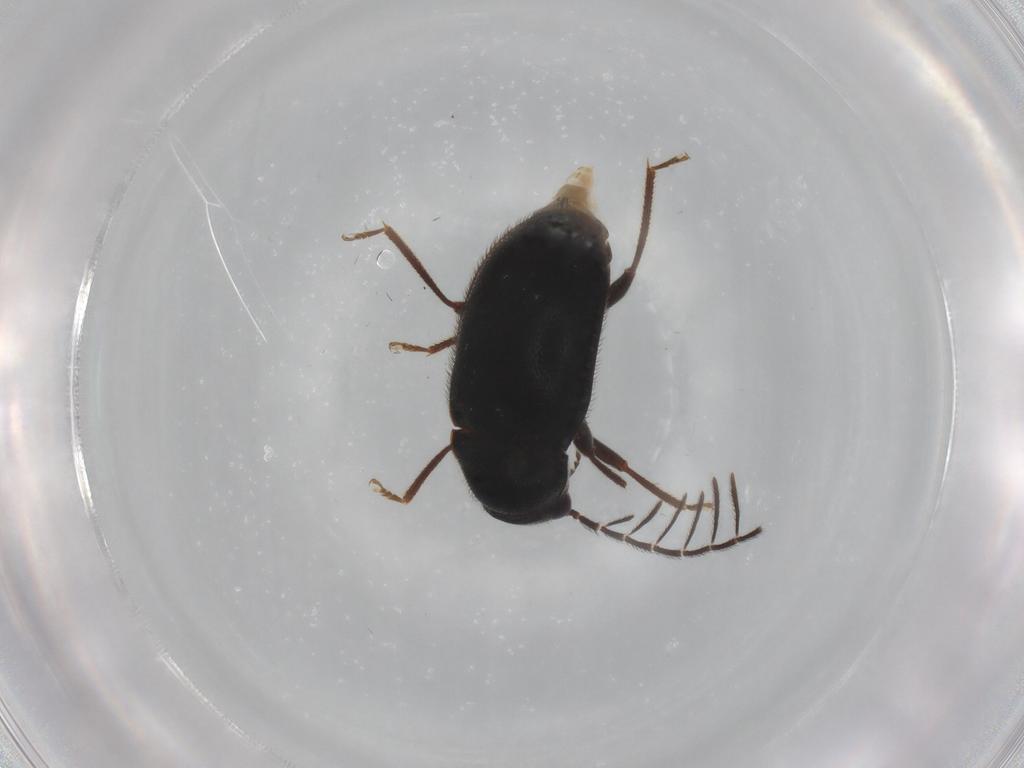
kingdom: Animalia
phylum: Arthropoda
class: Insecta
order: Coleoptera
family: Ptilodactylidae
